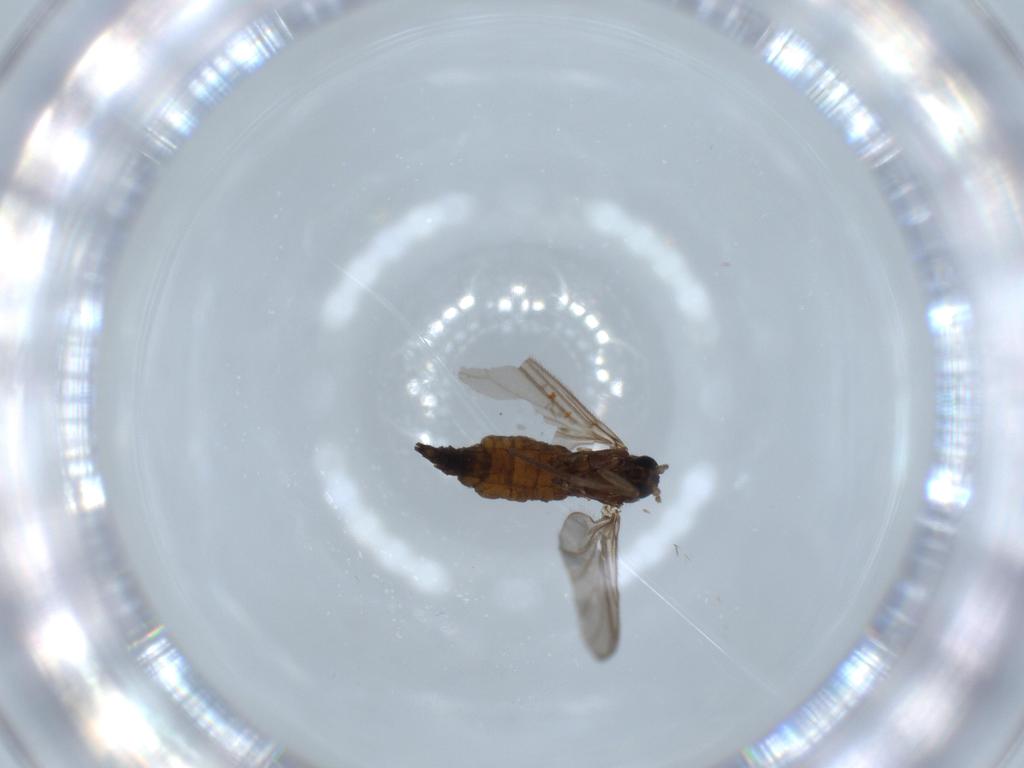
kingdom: Animalia
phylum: Arthropoda
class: Insecta
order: Diptera
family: Sciaridae
